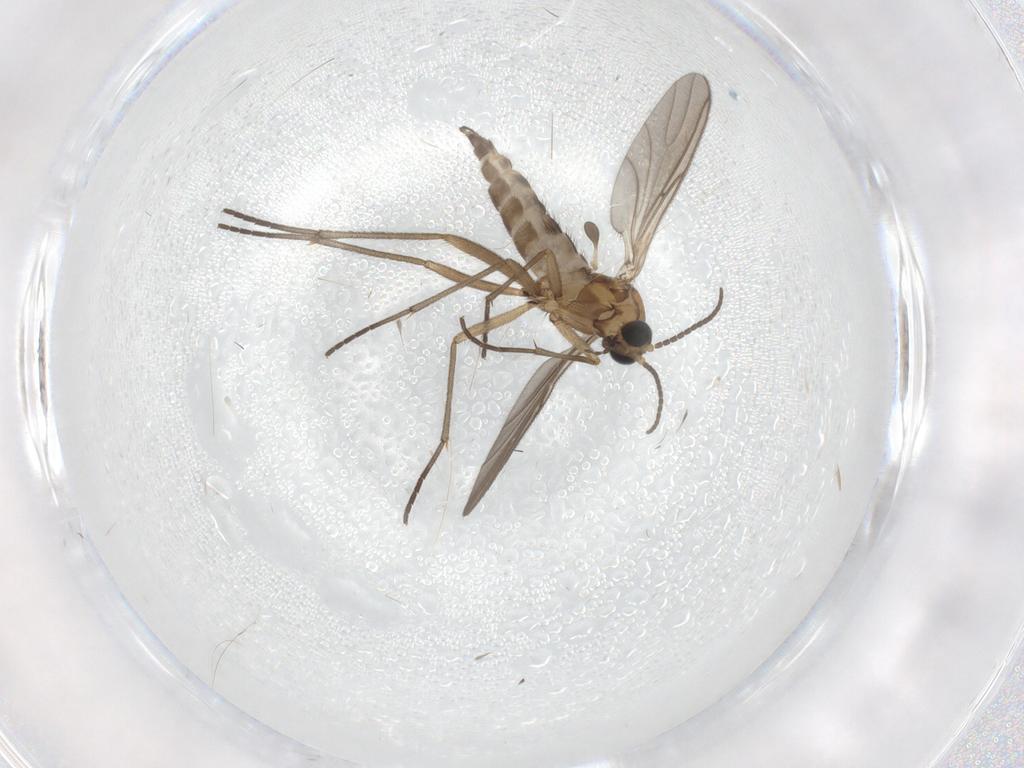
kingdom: Animalia
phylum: Arthropoda
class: Insecta
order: Diptera
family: Sciaridae
